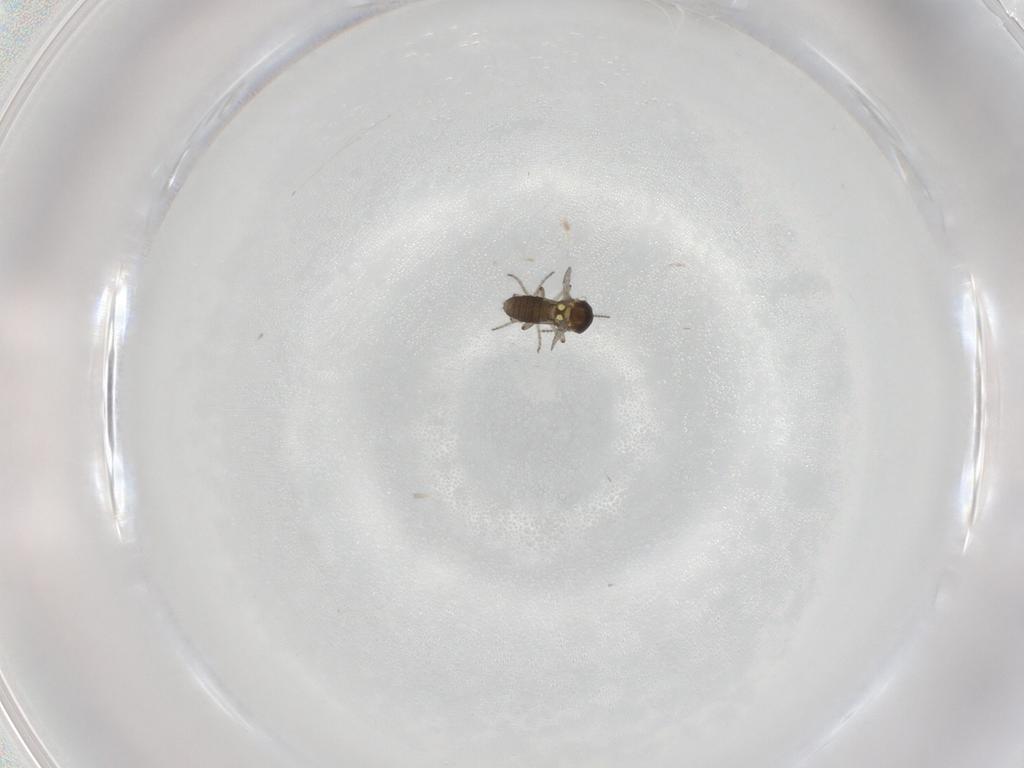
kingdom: Animalia
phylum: Arthropoda
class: Insecta
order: Diptera
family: Ceratopogonidae
